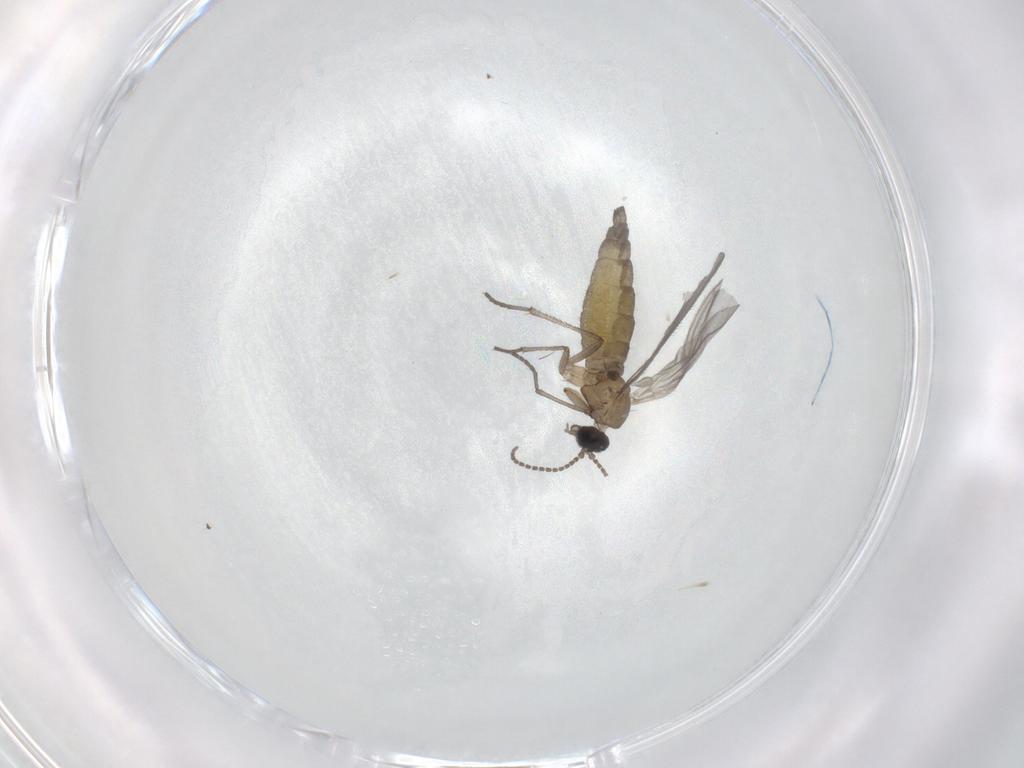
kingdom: Animalia
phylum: Arthropoda
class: Insecta
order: Diptera
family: Sciaridae
